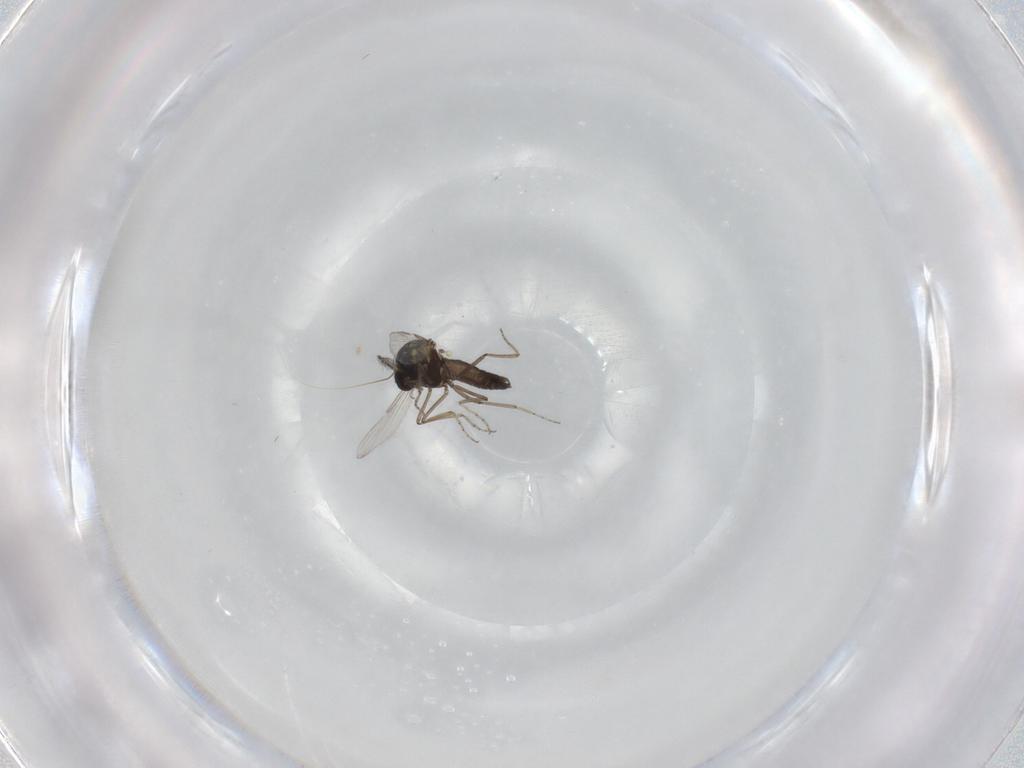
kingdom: Animalia
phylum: Arthropoda
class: Insecta
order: Diptera
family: Ceratopogonidae
